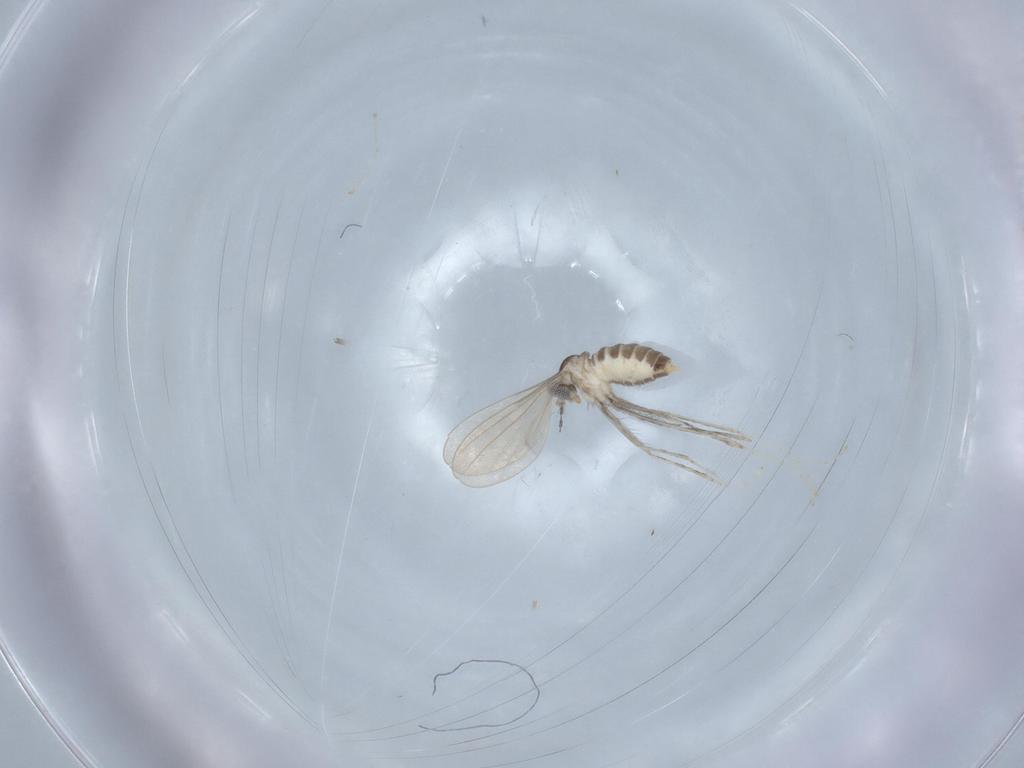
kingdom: Animalia
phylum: Arthropoda
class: Insecta
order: Diptera
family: Cecidomyiidae
